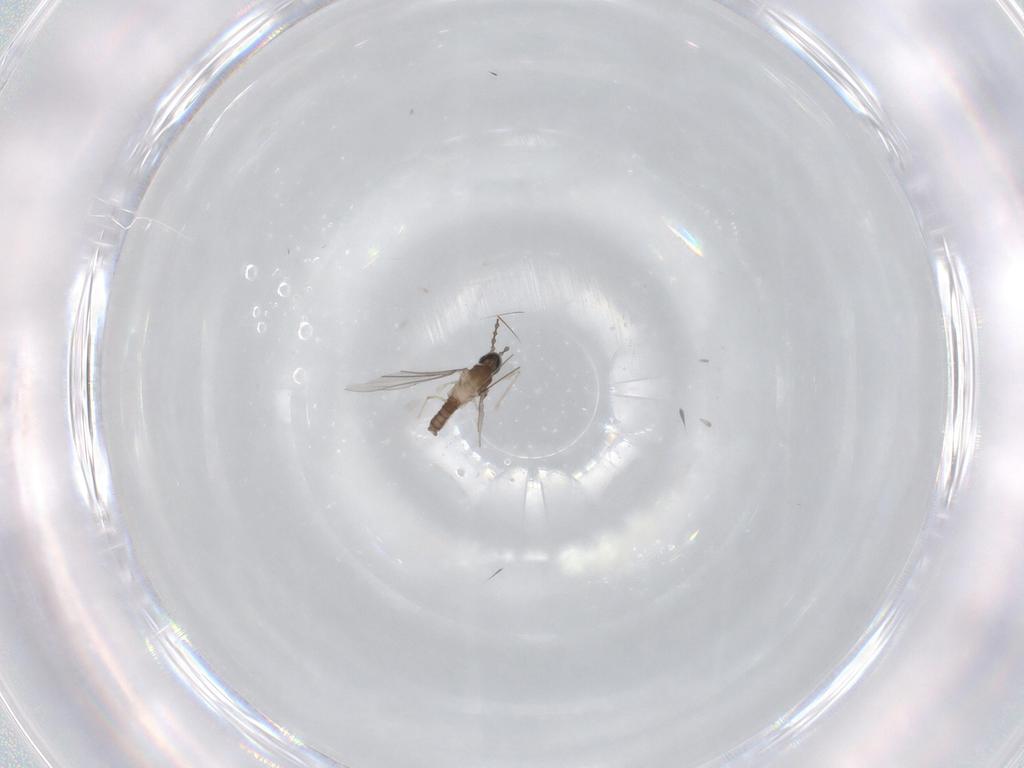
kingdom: Animalia
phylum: Arthropoda
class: Insecta
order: Diptera
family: Cecidomyiidae
